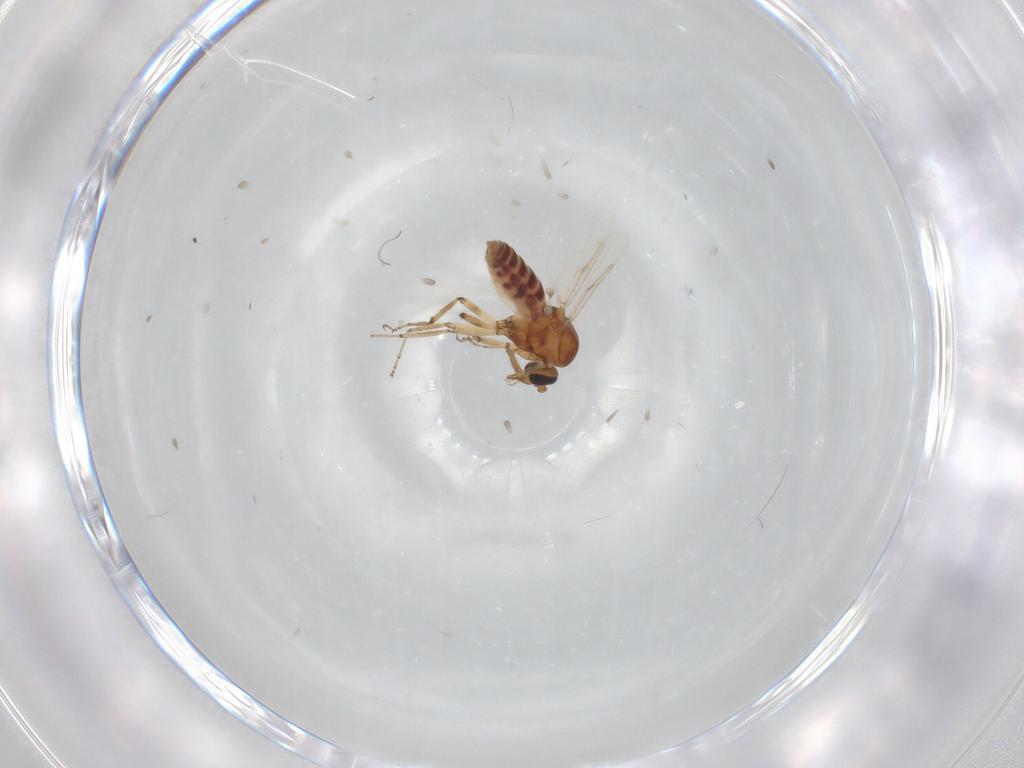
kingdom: Animalia
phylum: Arthropoda
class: Insecta
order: Diptera
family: Ceratopogonidae
